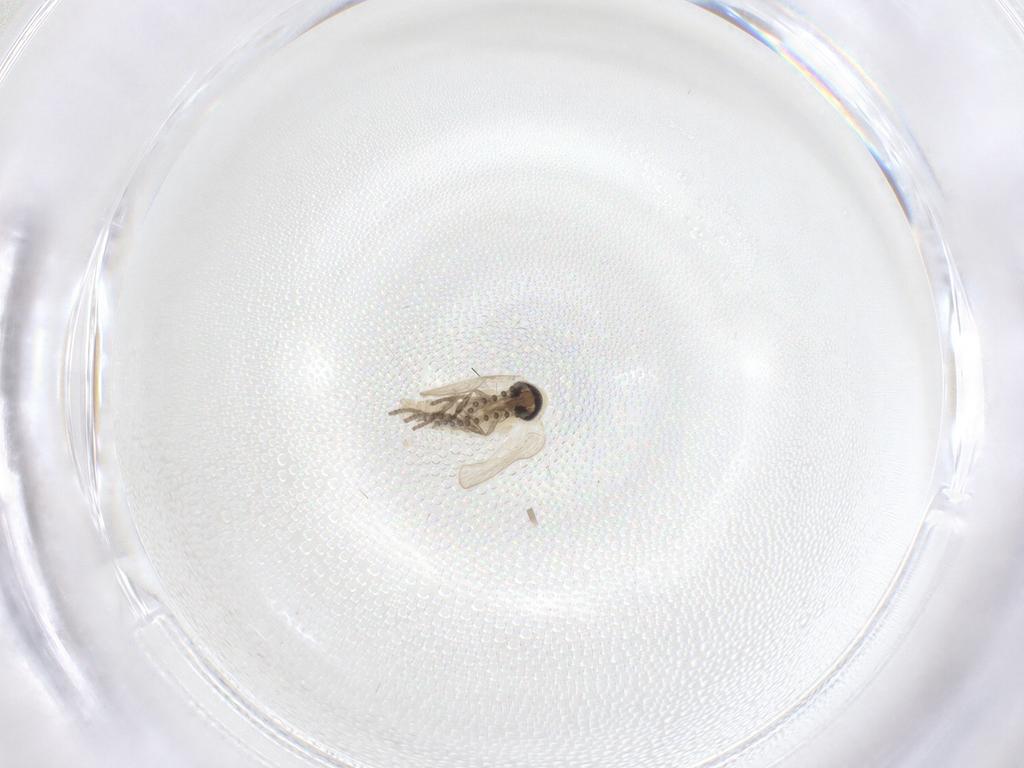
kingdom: Animalia
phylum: Arthropoda
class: Insecta
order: Diptera
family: Psychodidae
